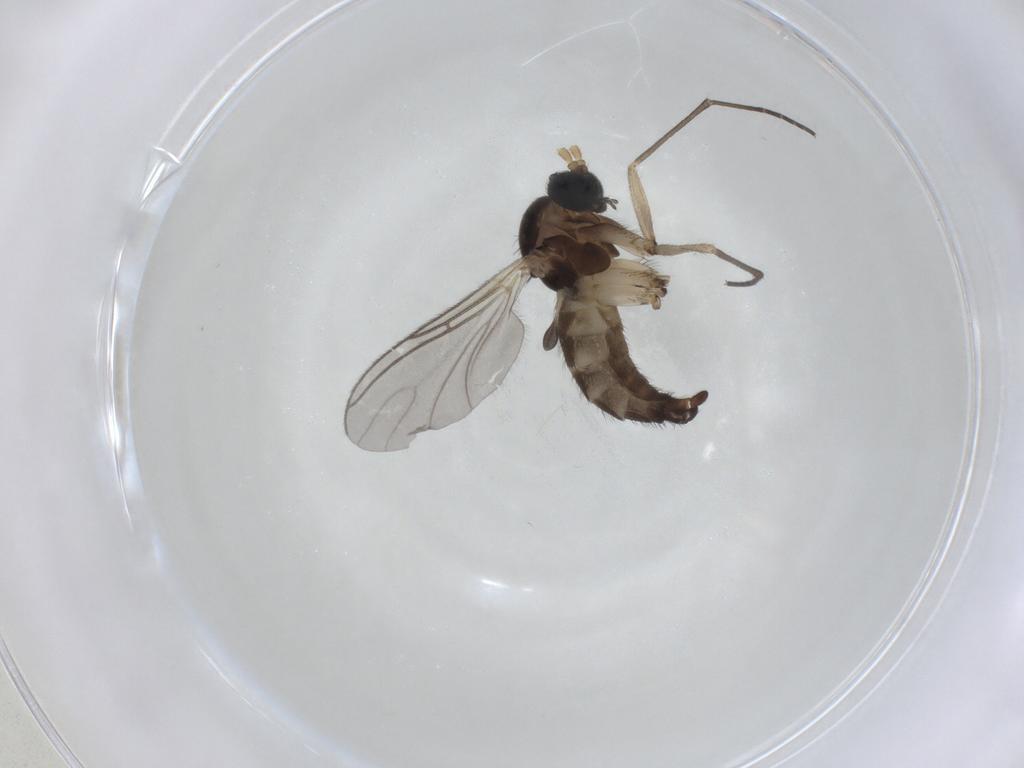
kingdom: Animalia
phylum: Arthropoda
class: Insecta
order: Diptera
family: Sciaridae
